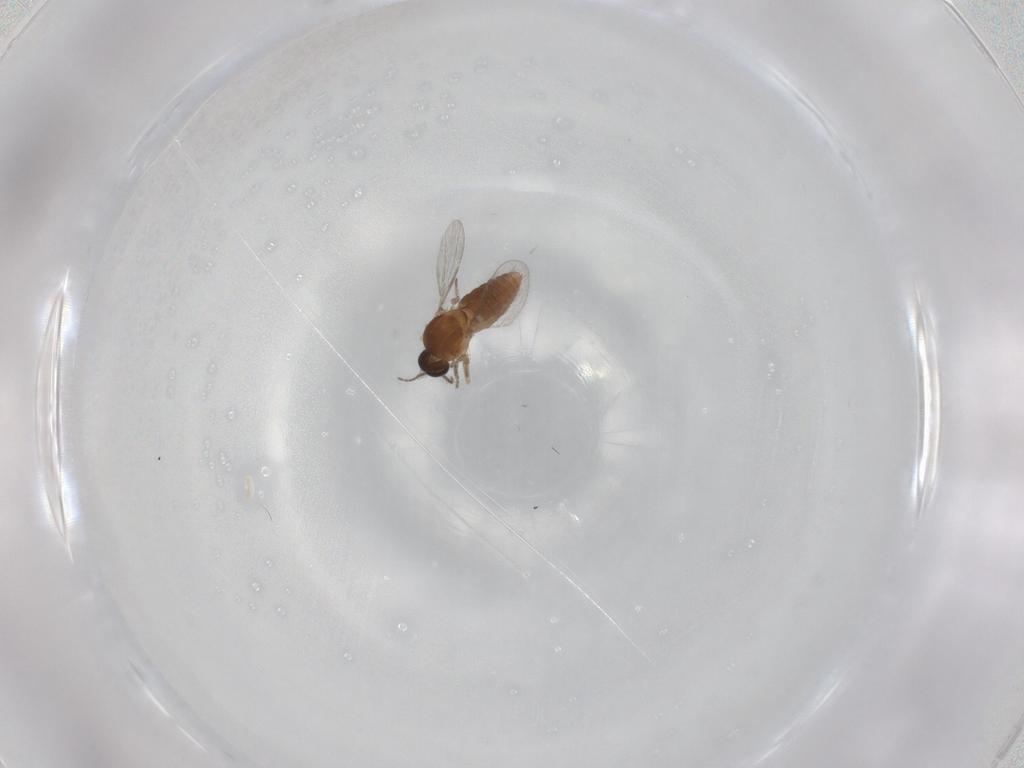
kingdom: Animalia
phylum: Arthropoda
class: Insecta
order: Diptera
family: Ceratopogonidae
